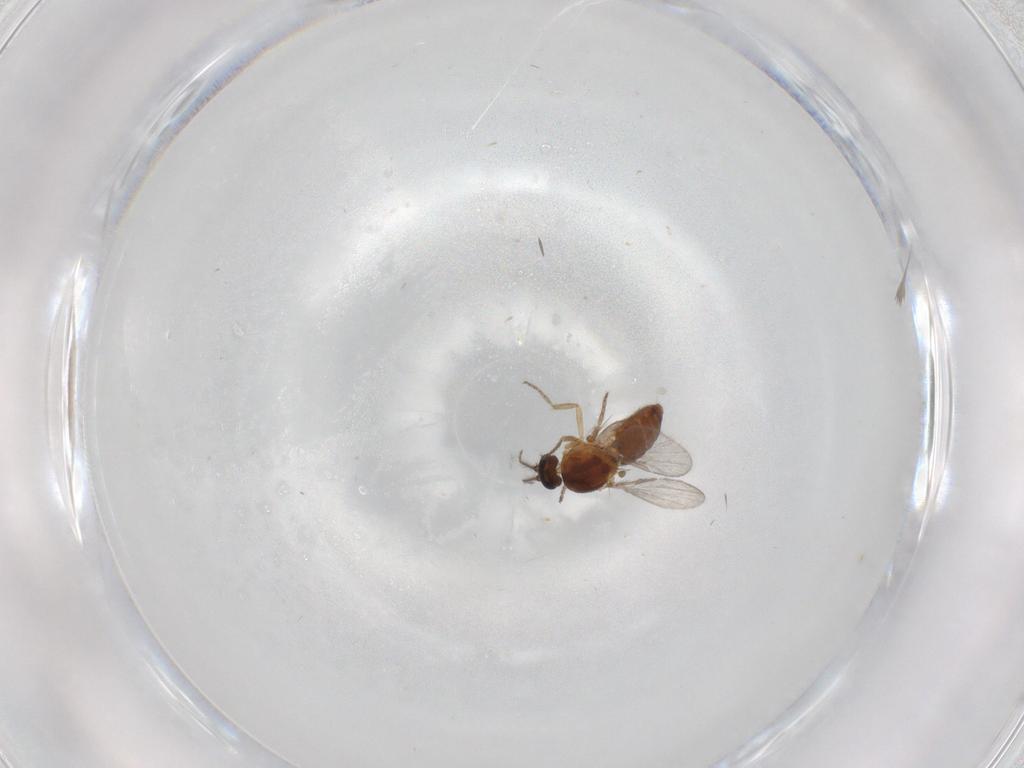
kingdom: Animalia
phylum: Arthropoda
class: Insecta
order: Diptera
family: Ceratopogonidae
